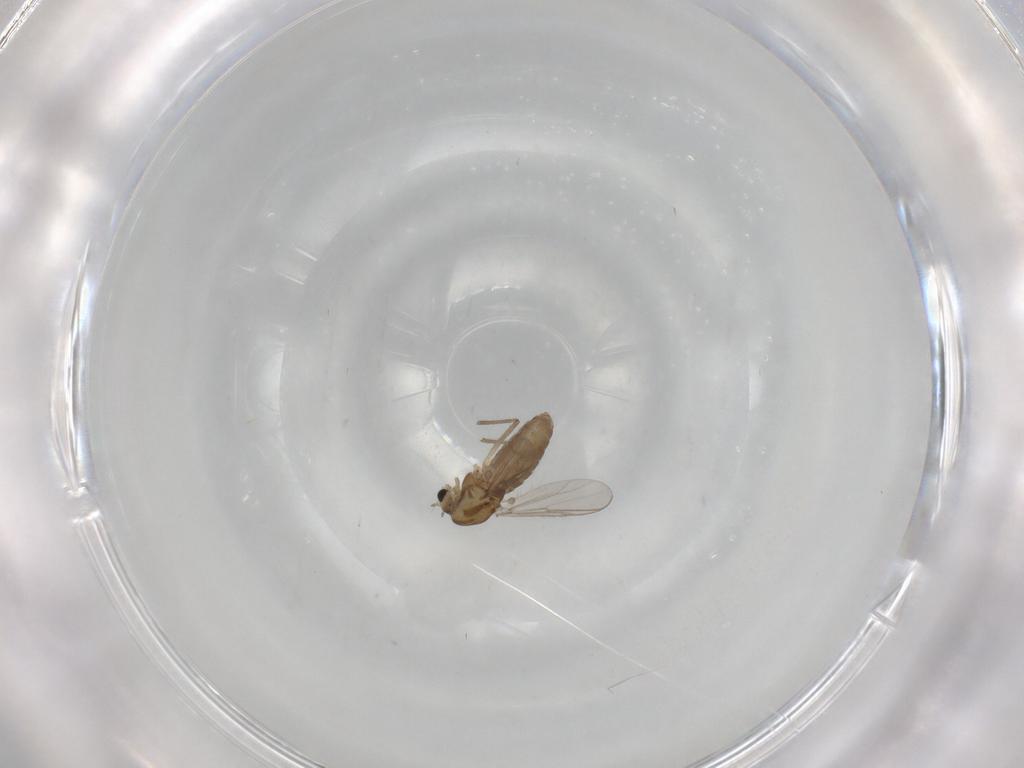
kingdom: Animalia
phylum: Arthropoda
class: Insecta
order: Diptera
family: Chironomidae
